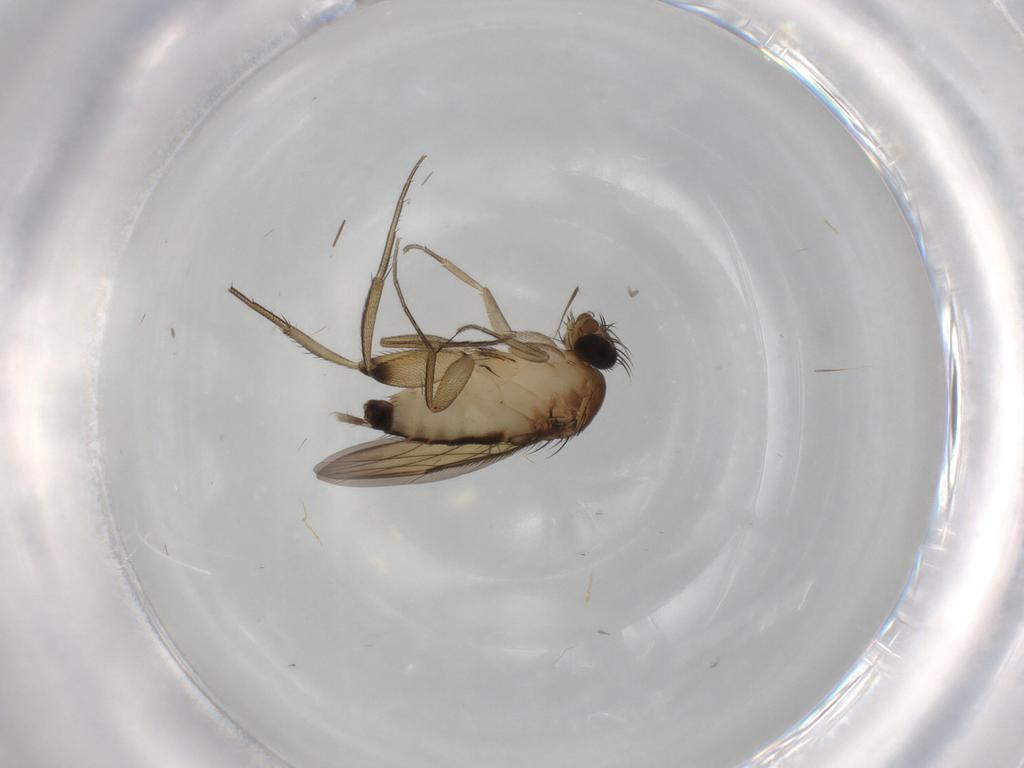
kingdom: Animalia
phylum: Arthropoda
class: Insecta
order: Diptera
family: Phoridae
